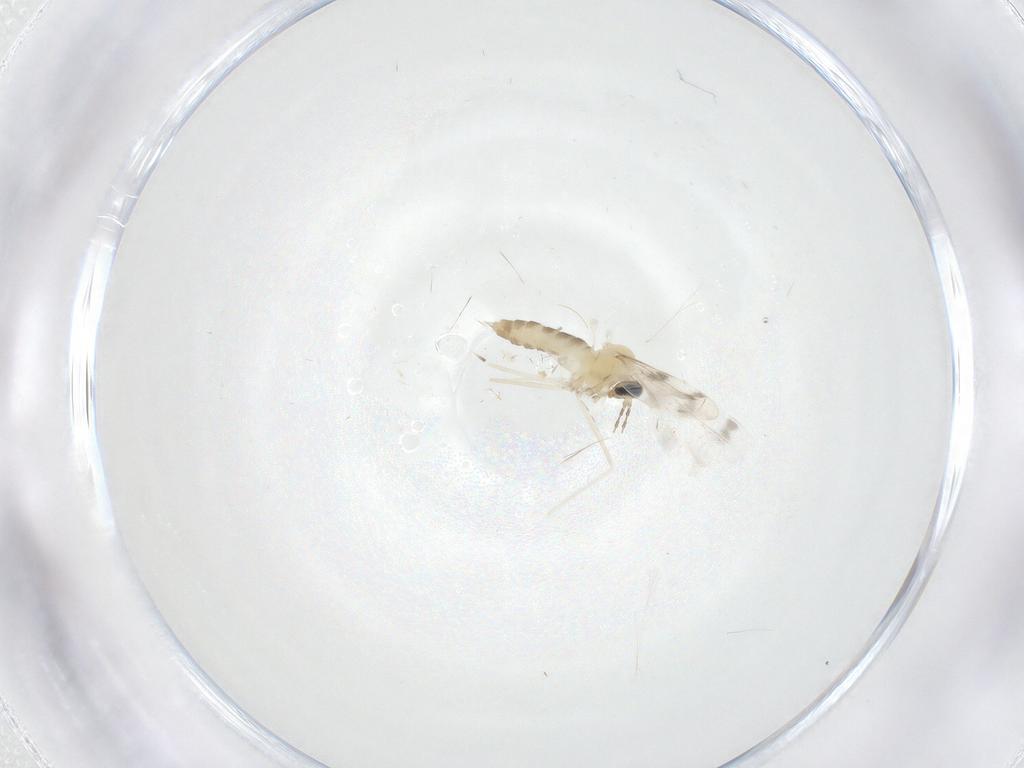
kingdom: Animalia
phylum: Arthropoda
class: Insecta
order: Diptera
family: Cecidomyiidae
